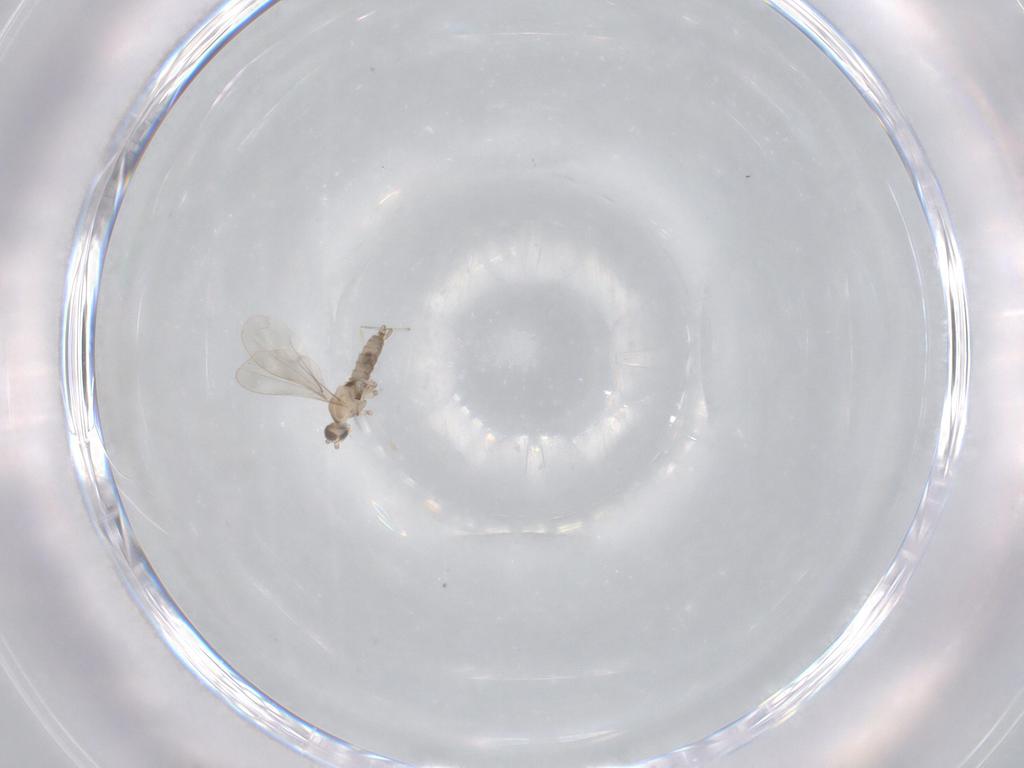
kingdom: Animalia
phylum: Arthropoda
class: Insecta
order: Diptera
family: Cecidomyiidae
